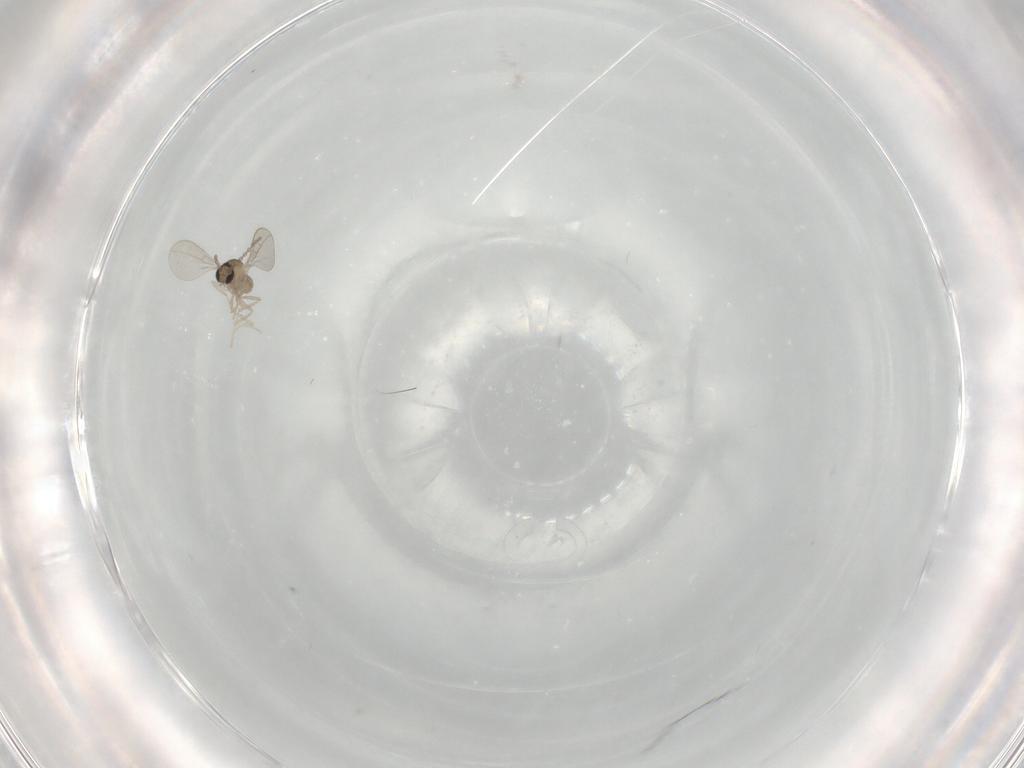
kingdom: Animalia
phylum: Arthropoda
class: Insecta
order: Diptera
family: Cecidomyiidae
